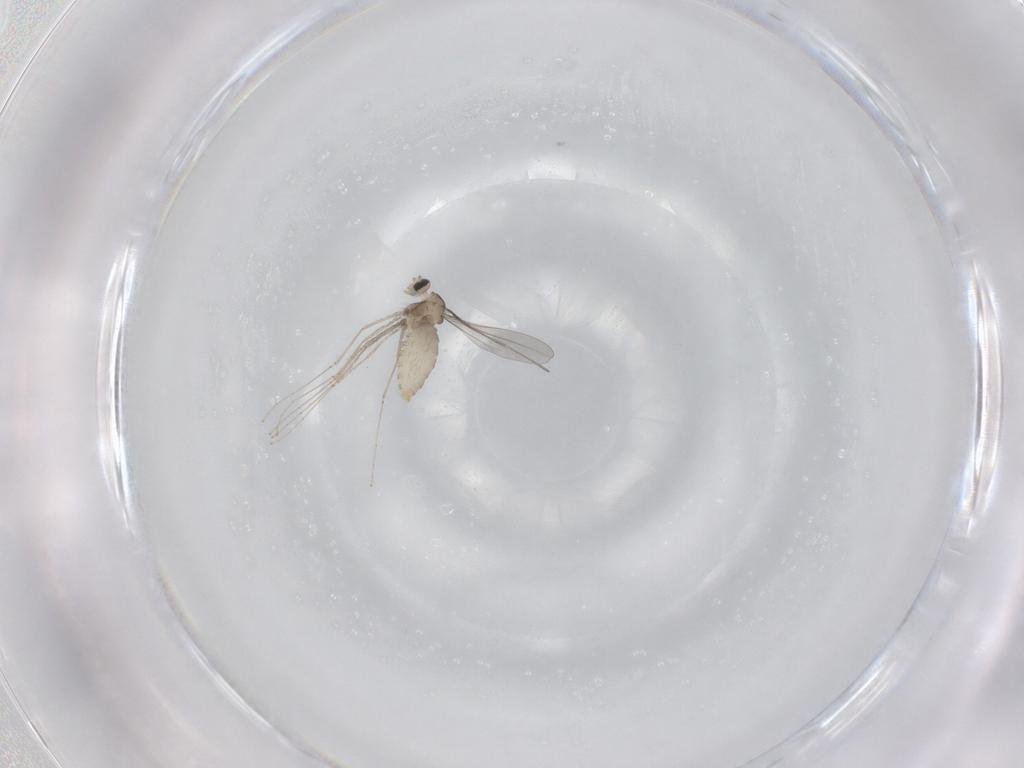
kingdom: Animalia
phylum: Arthropoda
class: Insecta
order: Diptera
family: Cecidomyiidae
